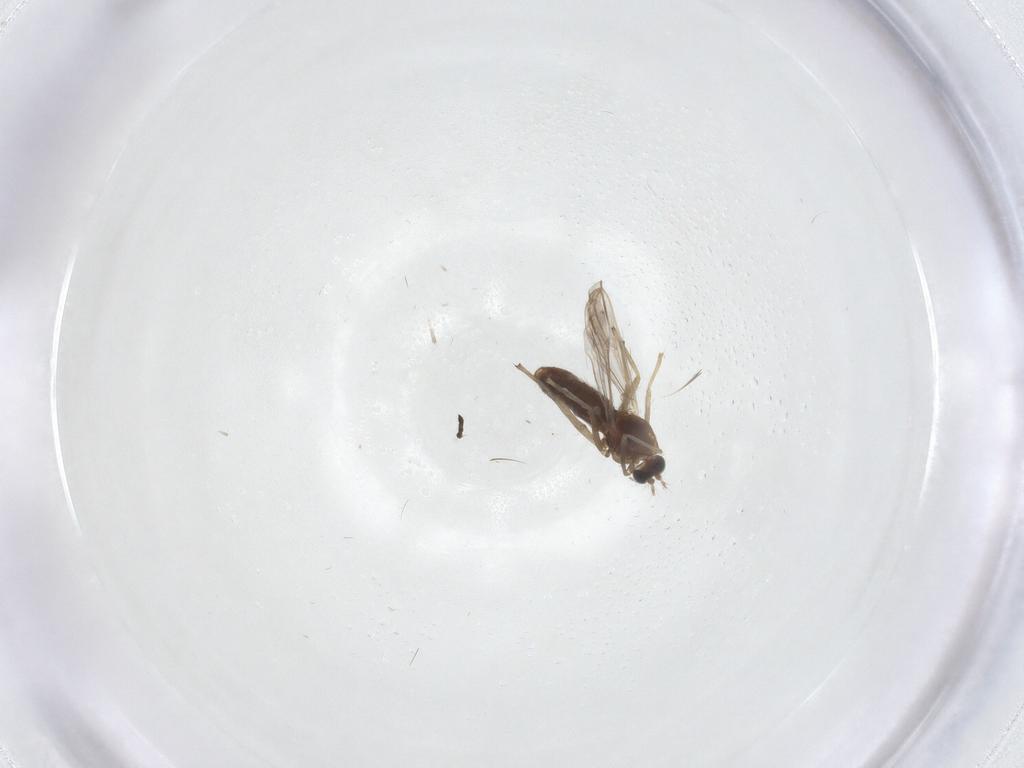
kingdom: Animalia
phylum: Arthropoda
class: Insecta
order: Diptera
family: Chironomidae
